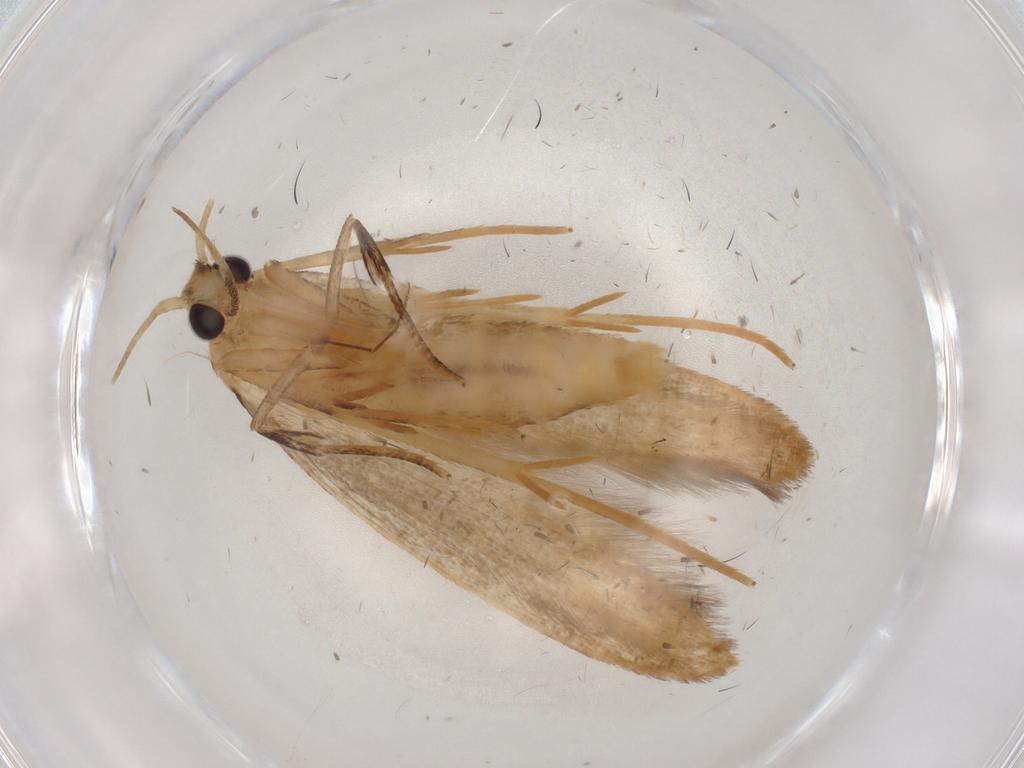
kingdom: Animalia
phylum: Arthropoda
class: Insecta
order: Lepidoptera
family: Nolidae
